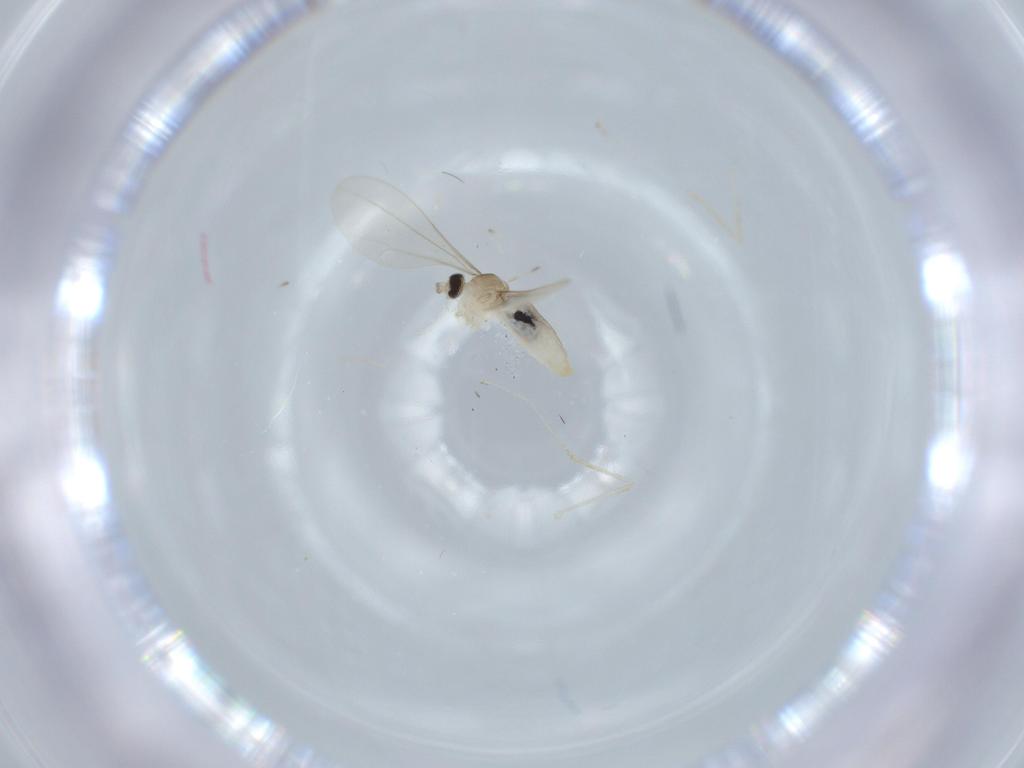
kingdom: Animalia
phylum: Arthropoda
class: Insecta
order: Diptera
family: Cecidomyiidae
